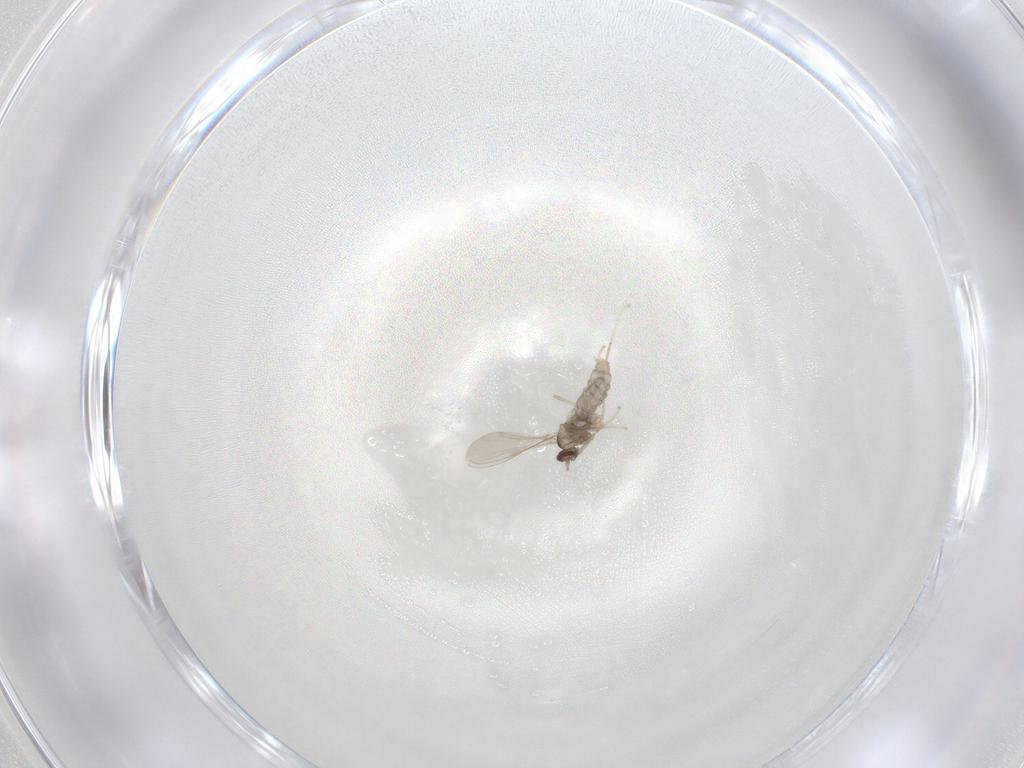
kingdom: Animalia
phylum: Arthropoda
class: Insecta
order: Diptera
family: Cecidomyiidae
